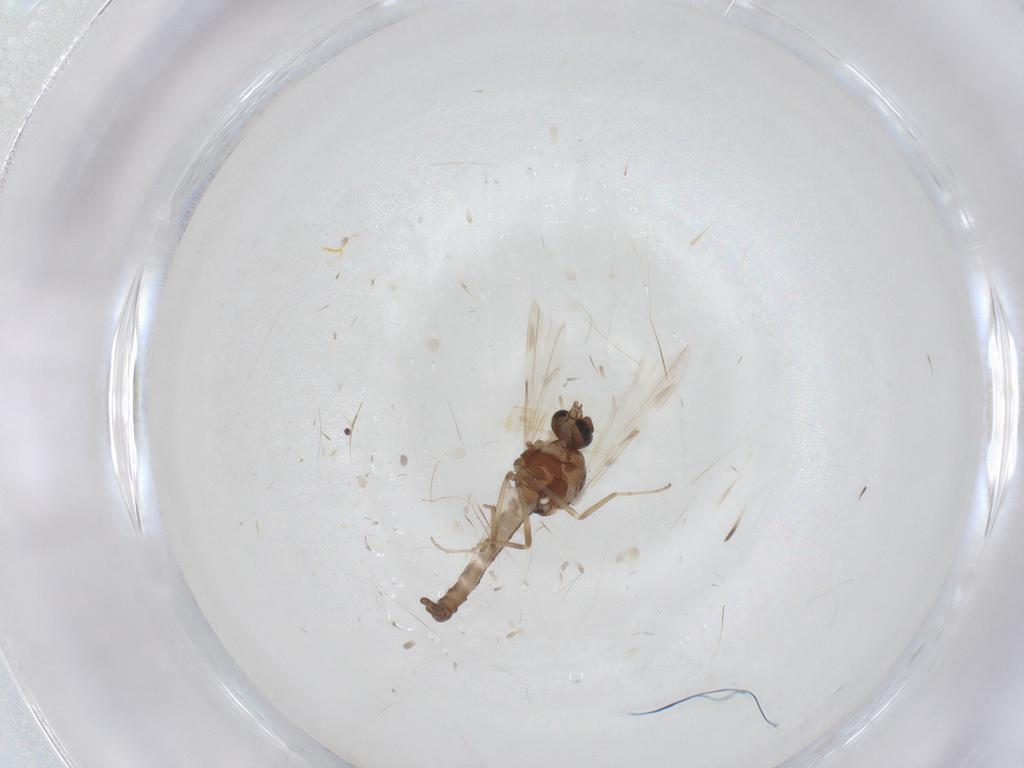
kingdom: Animalia
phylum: Arthropoda
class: Insecta
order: Diptera
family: Ceratopogonidae
